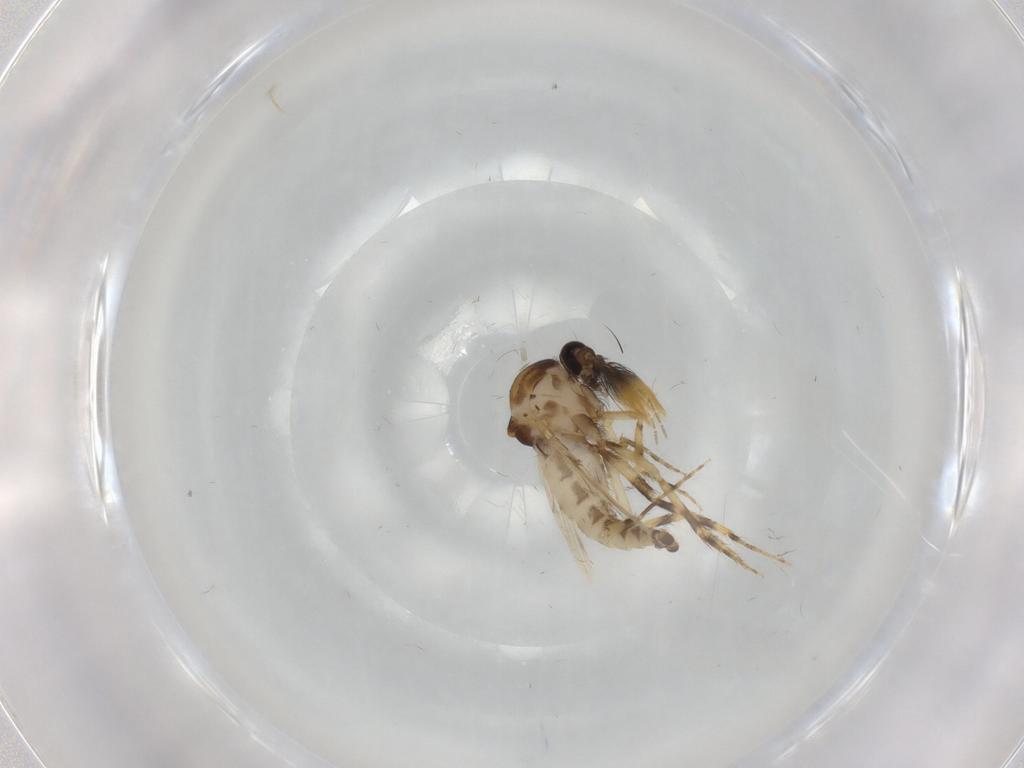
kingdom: Animalia
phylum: Arthropoda
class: Insecta
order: Diptera
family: Ceratopogonidae
